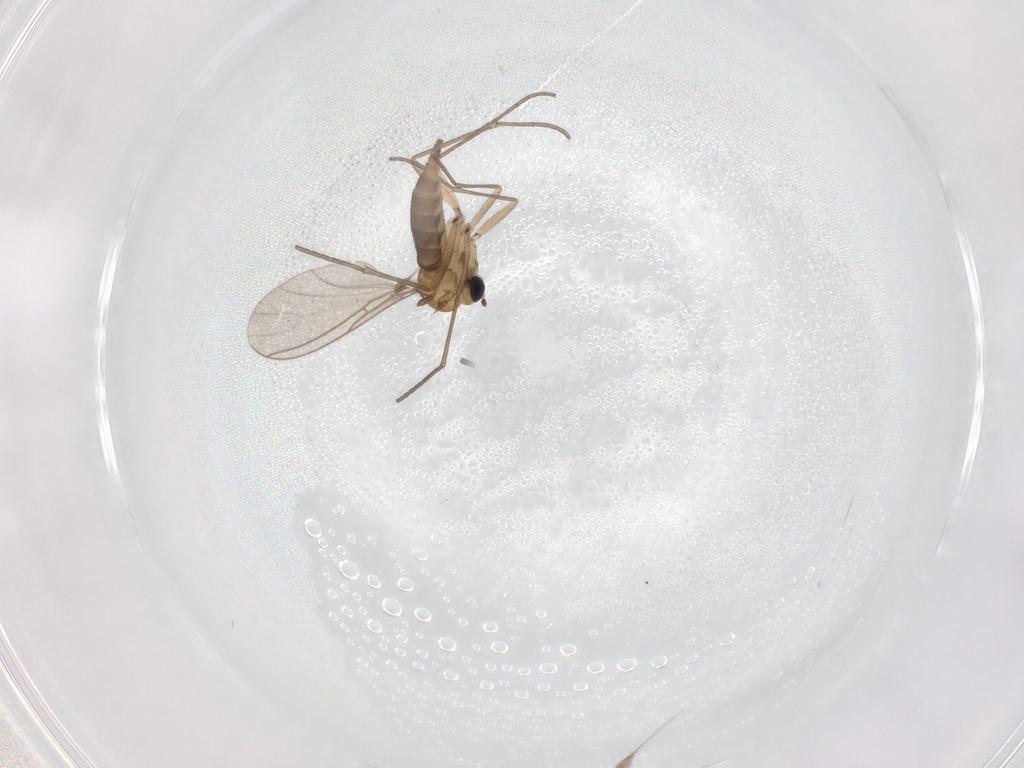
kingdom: Animalia
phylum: Arthropoda
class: Insecta
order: Diptera
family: Sciaridae
